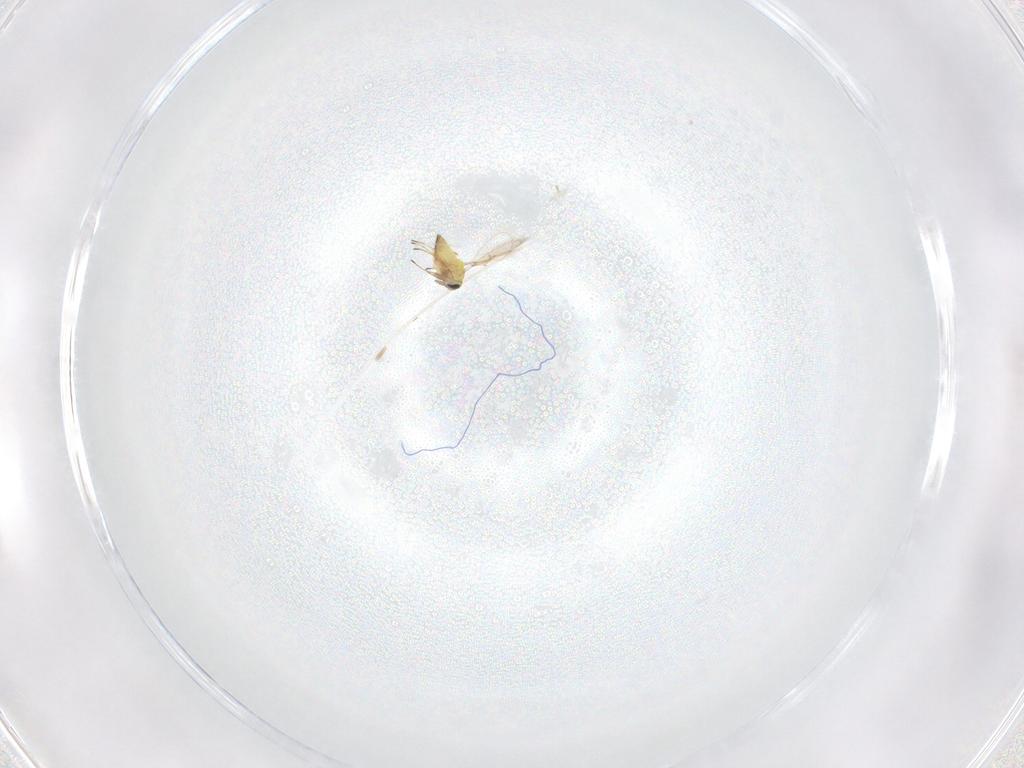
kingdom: Animalia
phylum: Arthropoda
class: Insecta
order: Hymenoptera
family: Trichogrammatidae
